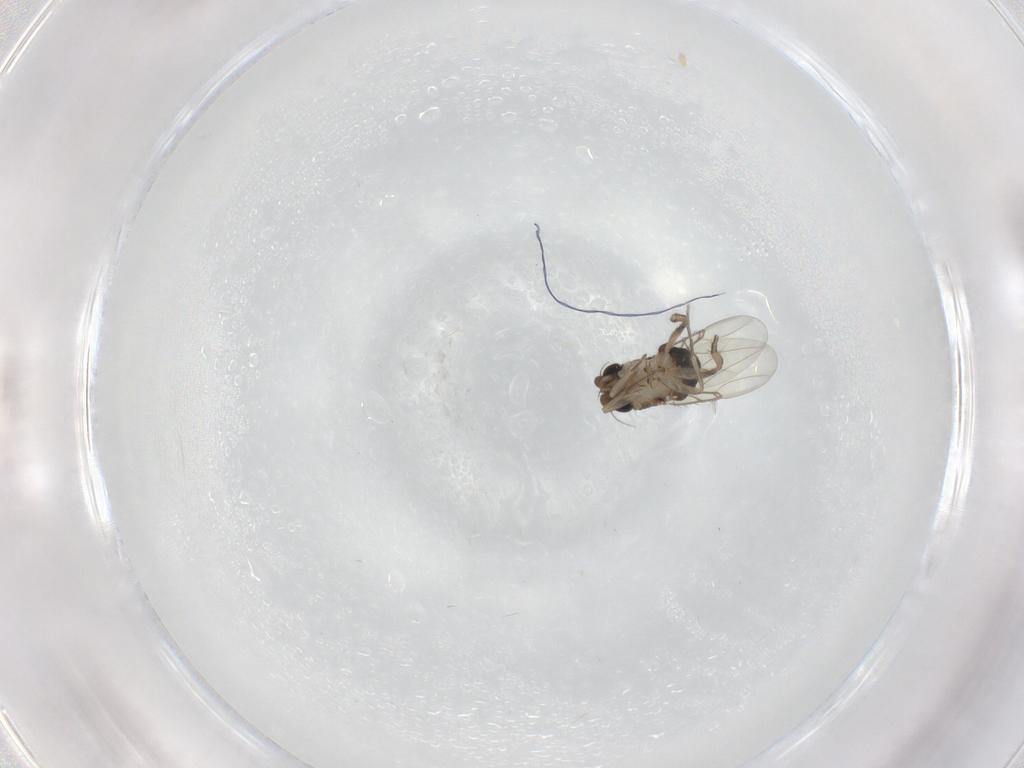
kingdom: Animalia
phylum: Arthropoda
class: Insecta
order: Diptera
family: Phoridae
